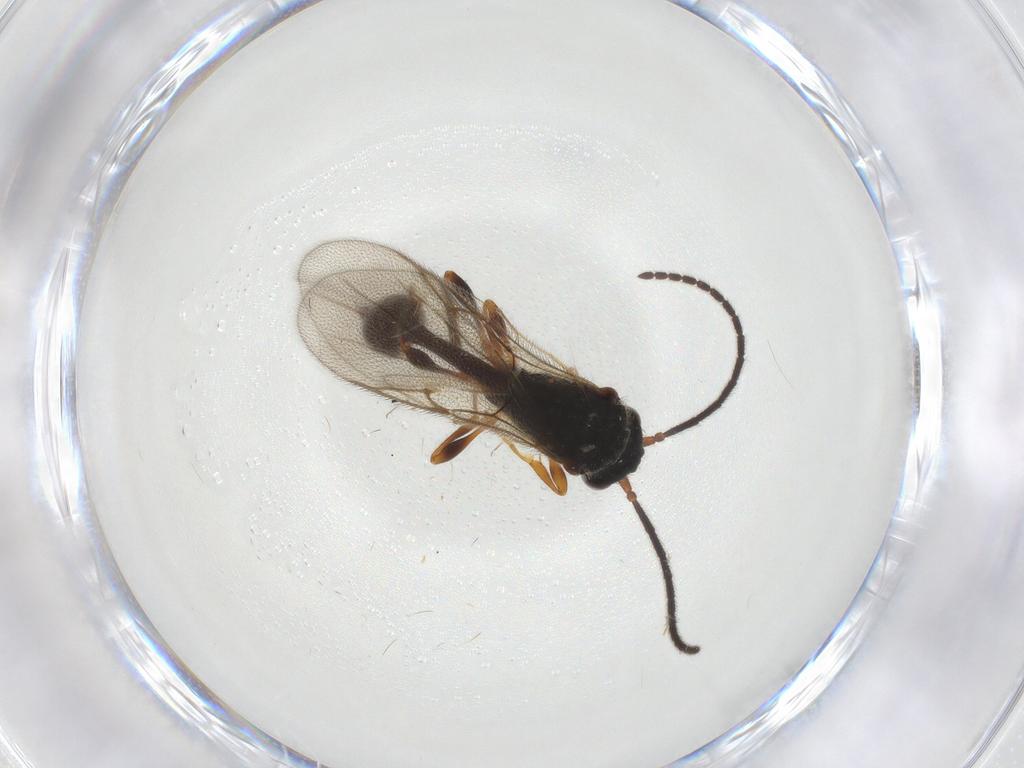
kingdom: Animalia
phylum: Arthropoda
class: Insecta
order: Hymenoptera
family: Diapriidae
